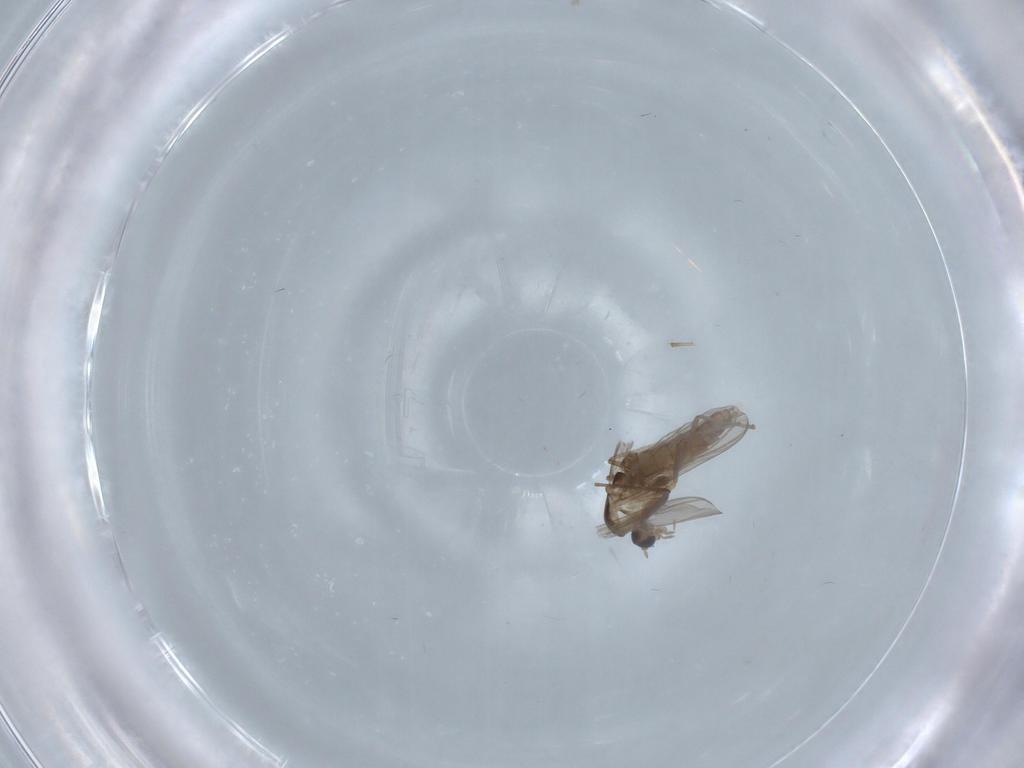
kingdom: Animalia
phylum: Arthropoda
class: Insecta
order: Diptera
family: Chironomidae
